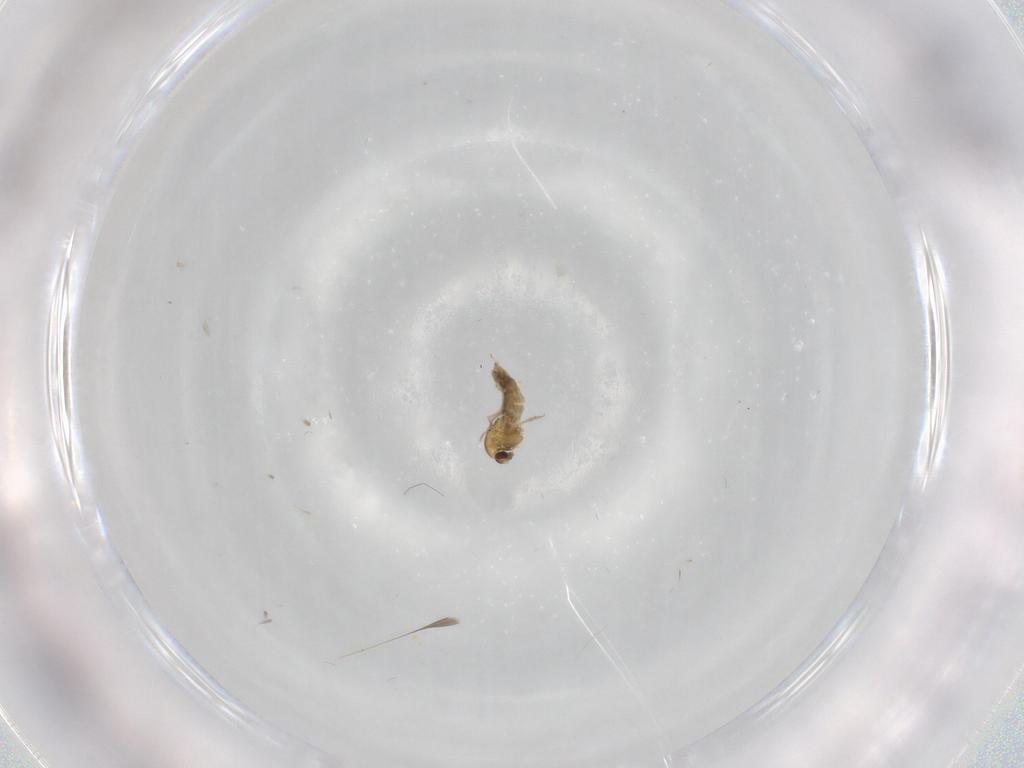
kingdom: Animalia
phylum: Arthropoda
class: Insecta
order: Diptera
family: Chironomidae
